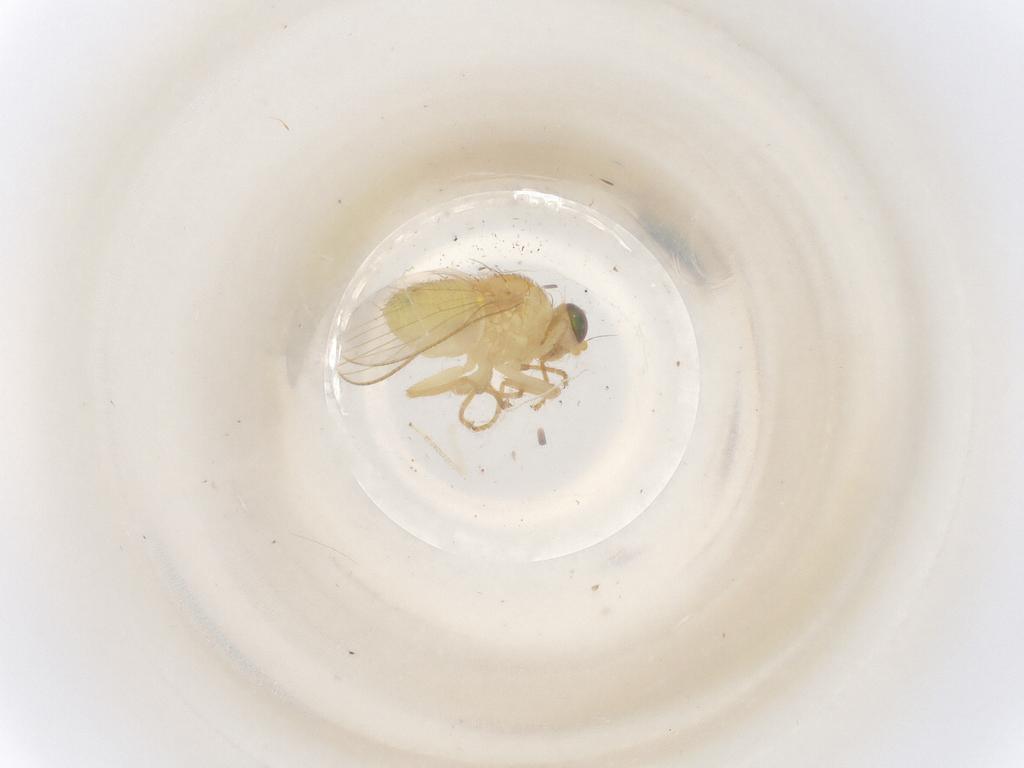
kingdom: Animalia
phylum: Arthropoda
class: Insecta
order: Diptera
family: Chyromyidae
